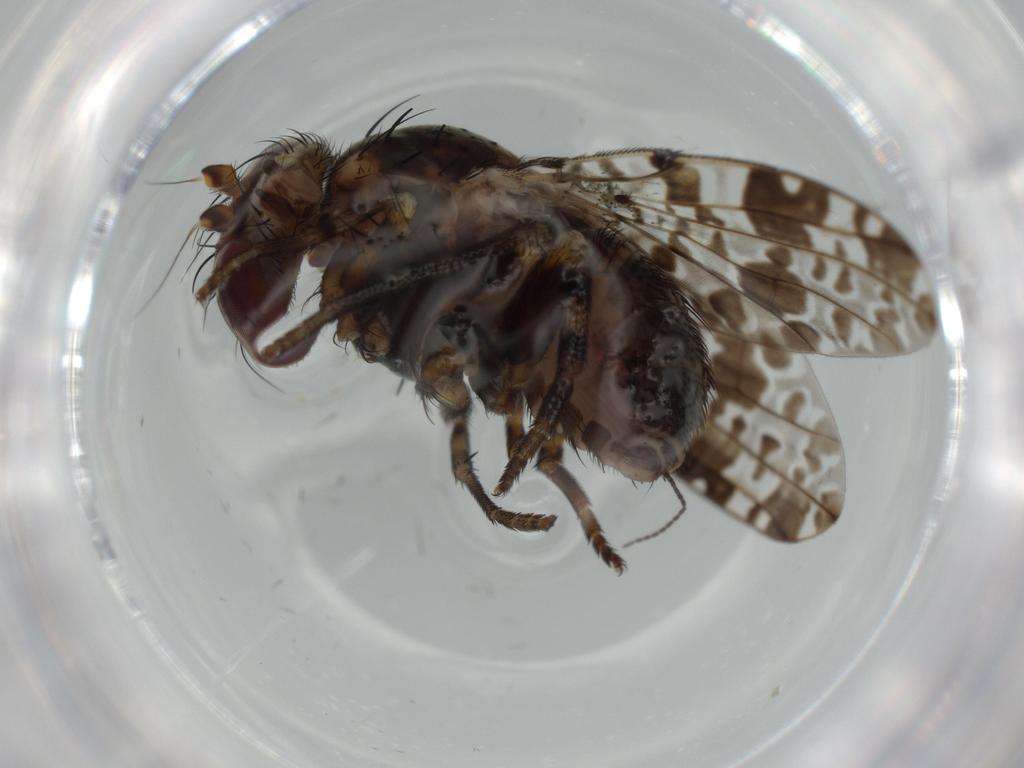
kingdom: Animalia
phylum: Arthropoda
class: Insecta
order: Diptera
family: Odiniidae
